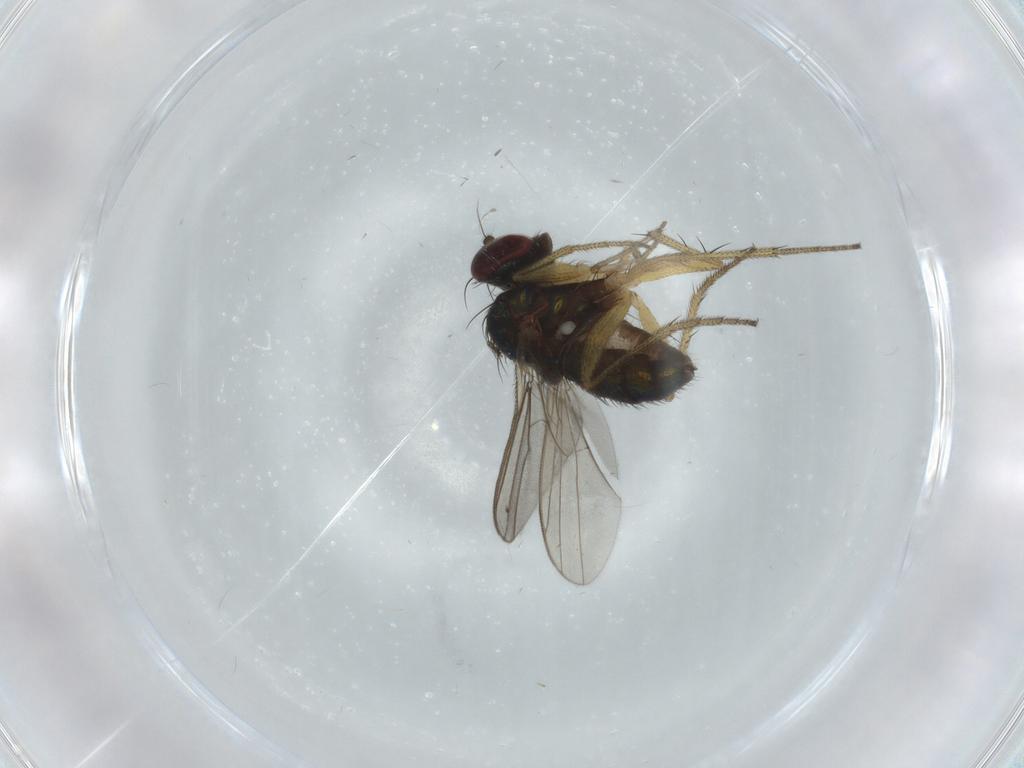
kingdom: Animalia
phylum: Arthropoda
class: Insecta
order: Diptera
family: Dolichopodidae
